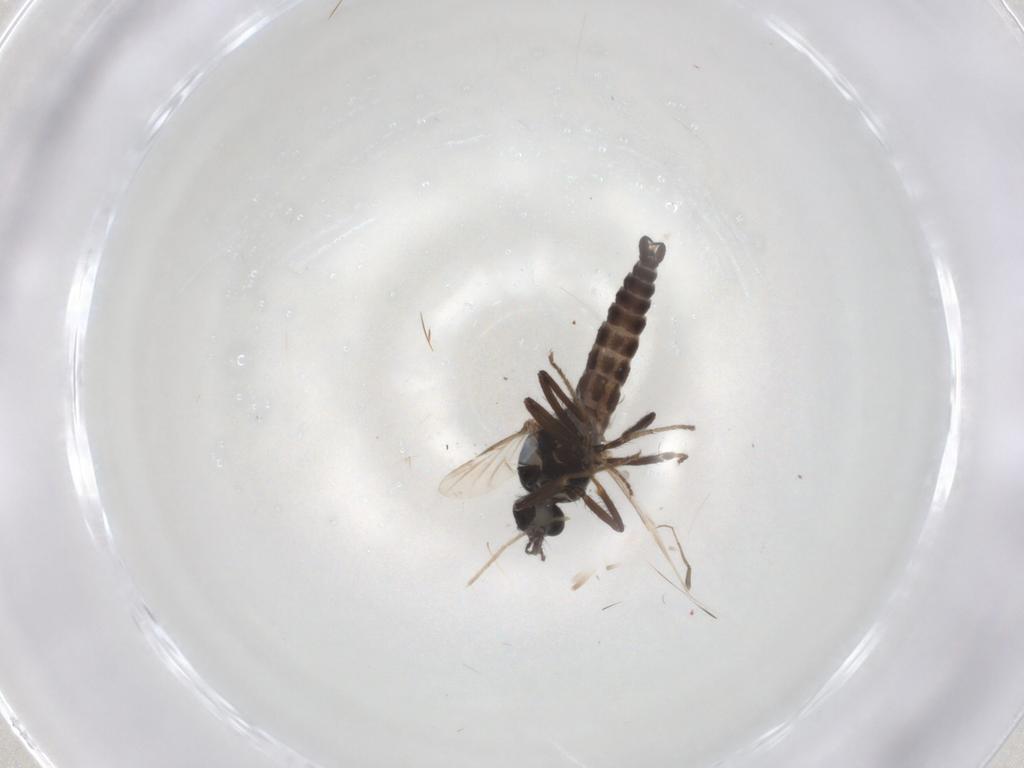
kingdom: Animalia
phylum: Arthropoda
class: Insecta
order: Diptera
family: Ceratopogonidae
